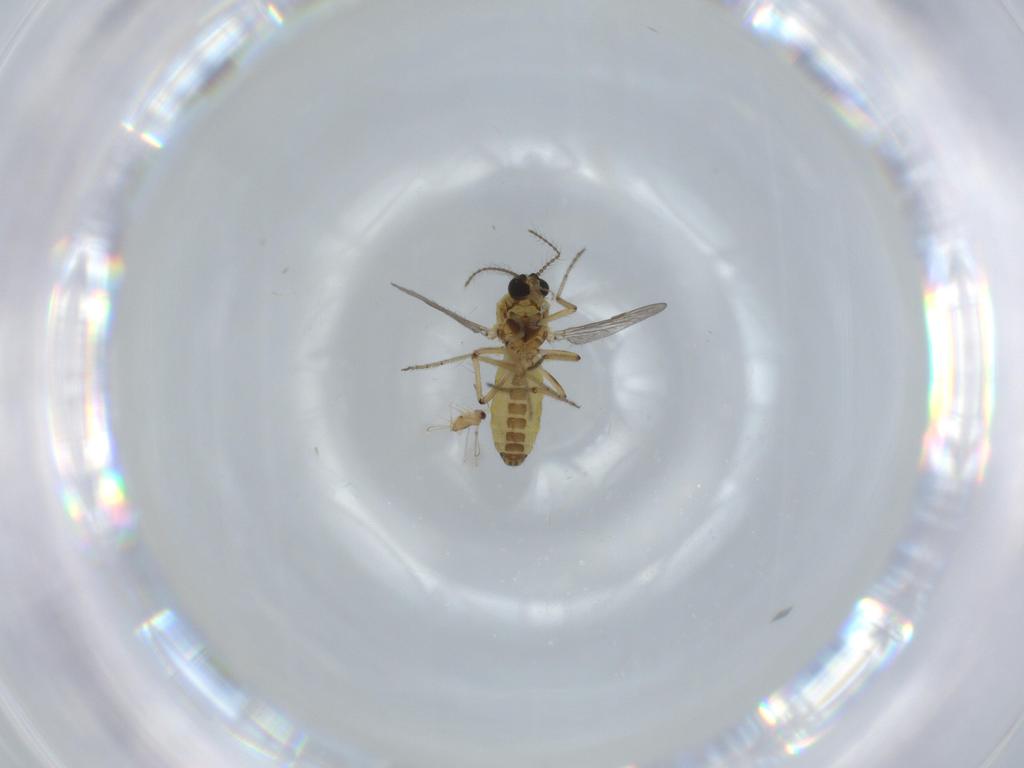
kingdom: Animalia
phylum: Arthropoda
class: Insecta
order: Diptera
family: Ceratopogonidae
